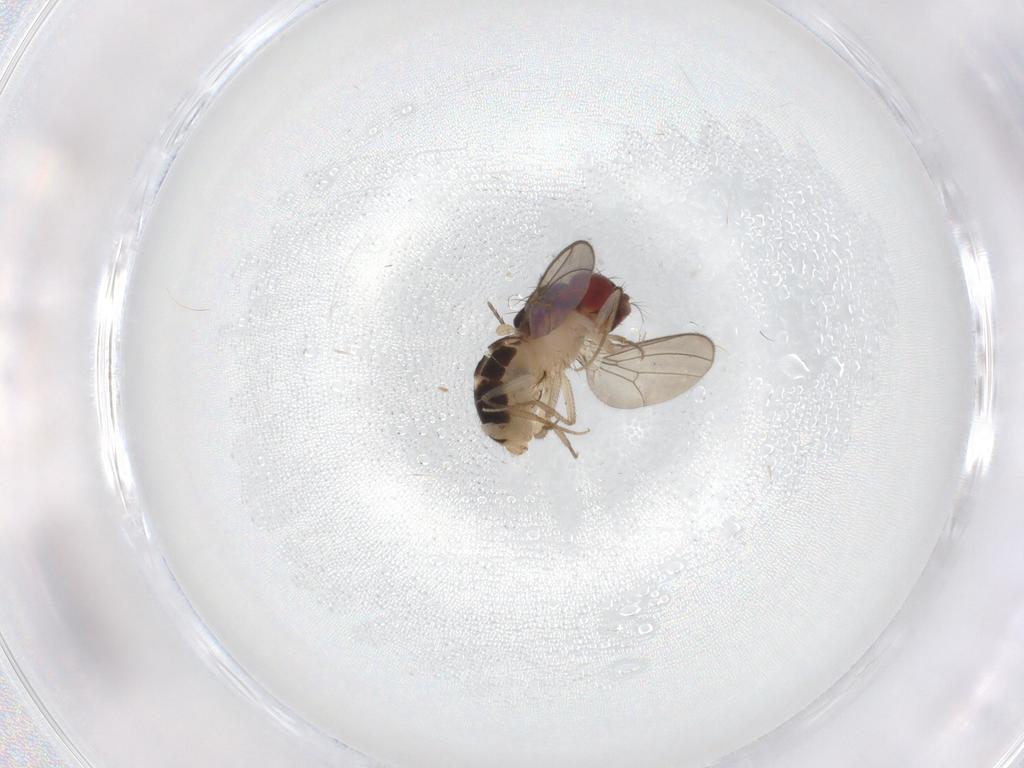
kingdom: Animalia
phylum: Arthropoda
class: Insecta
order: Diptera
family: Drosophilidae
